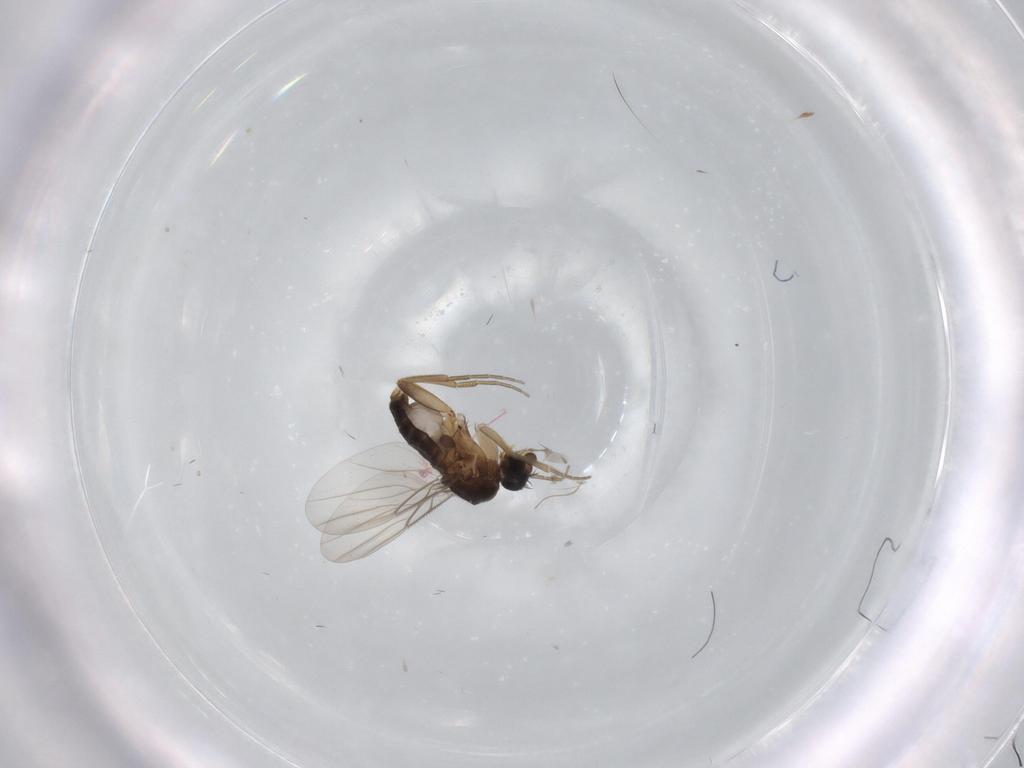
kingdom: Animalia
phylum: Arthropoda
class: Insecta
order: Diptera
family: Phoridae
